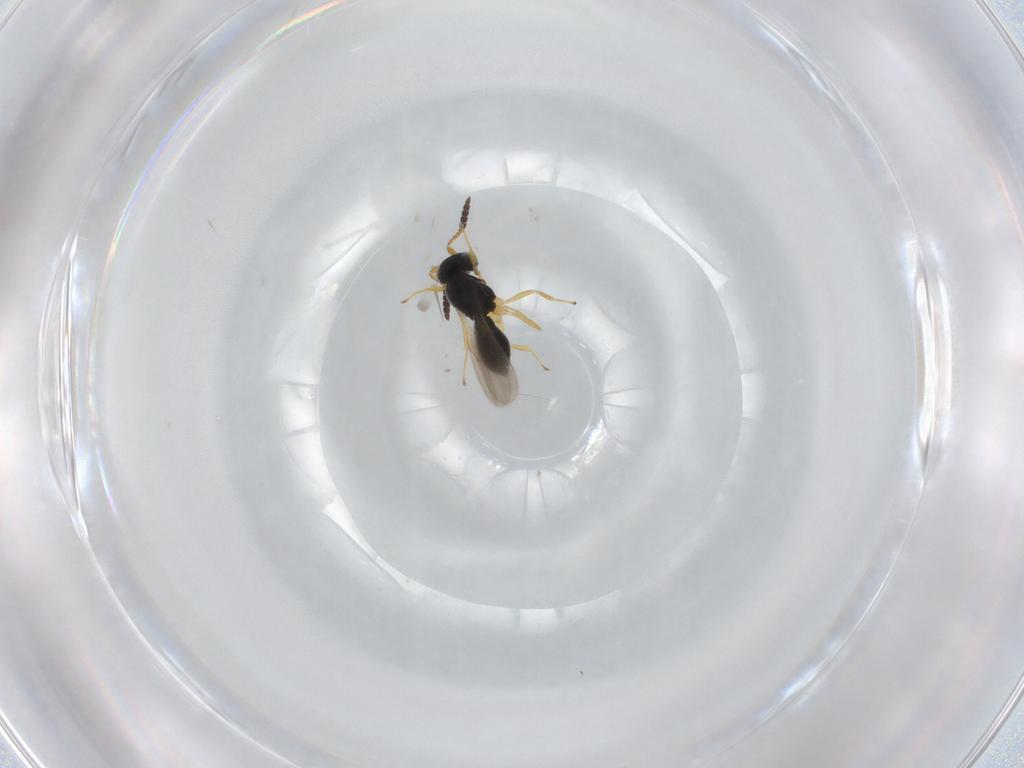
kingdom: Animalia
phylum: Arthropoda
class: Insecta
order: Hymenoptera
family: Scelionidae
